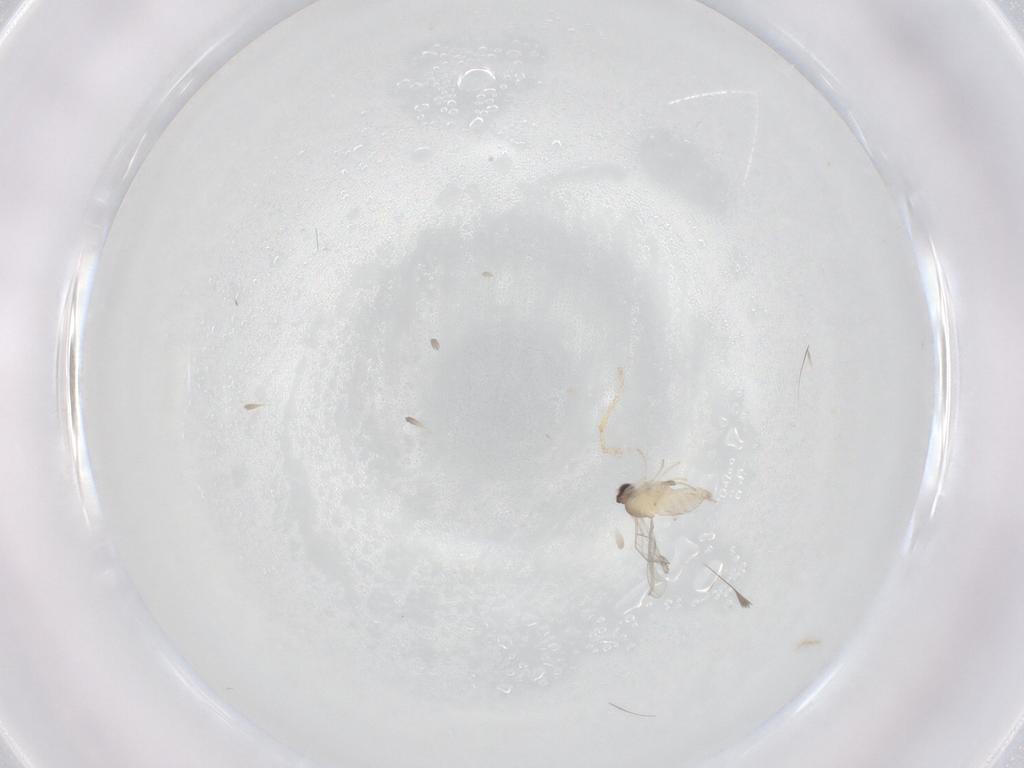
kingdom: Animalia
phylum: Arthropoda
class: Insecta
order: Diptera
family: Cecidomyiidae
